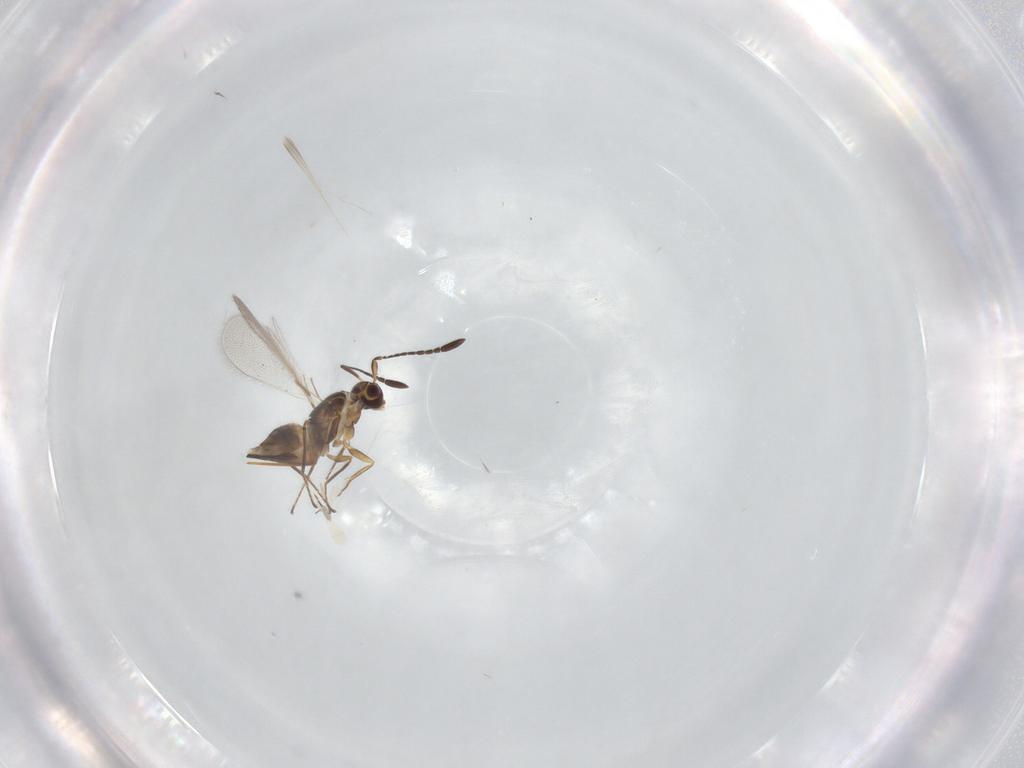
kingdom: Animalia
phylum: Arthropoda
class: Insecta
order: Hymenoptera
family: Mymaridae
